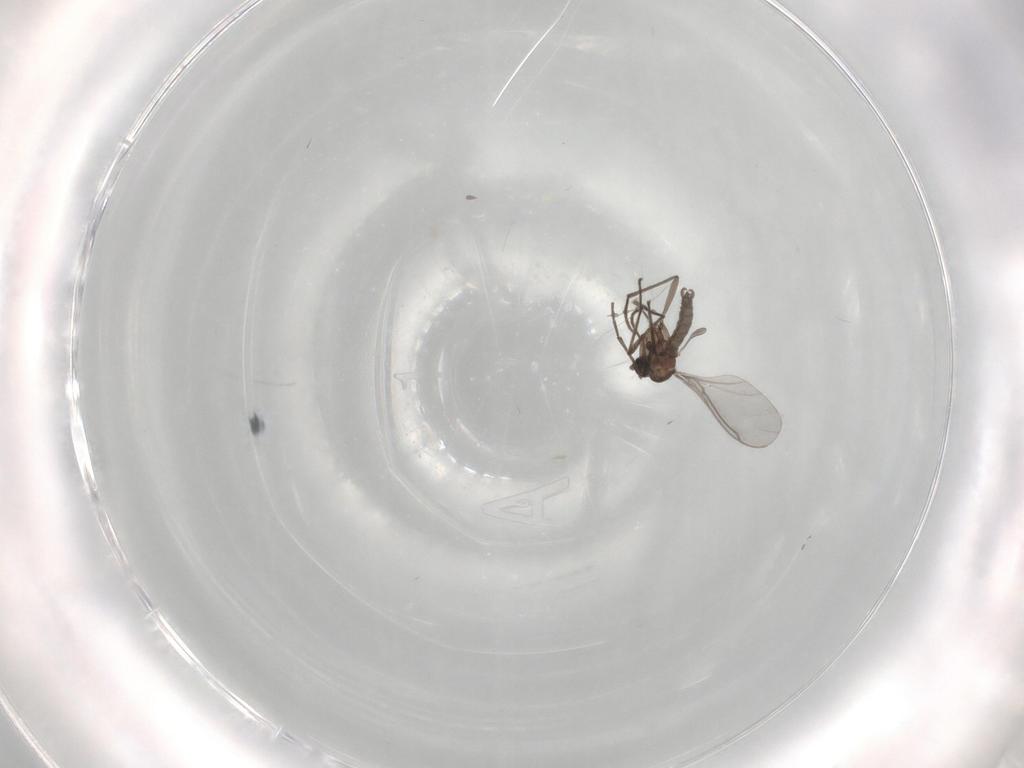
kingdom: Animalia
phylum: Arthropoda
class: Insecta
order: Diptera
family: Sciaridae
